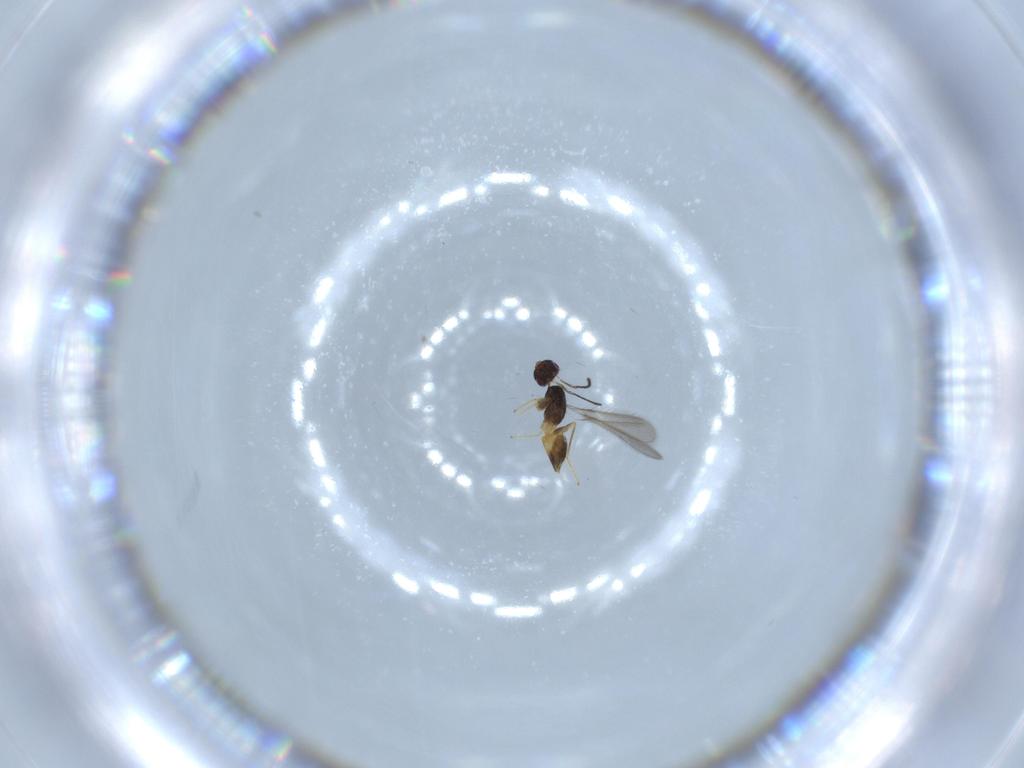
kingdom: Animalia
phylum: Arthropoda
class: Insecta
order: Hymenoptera
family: Mymaridae
